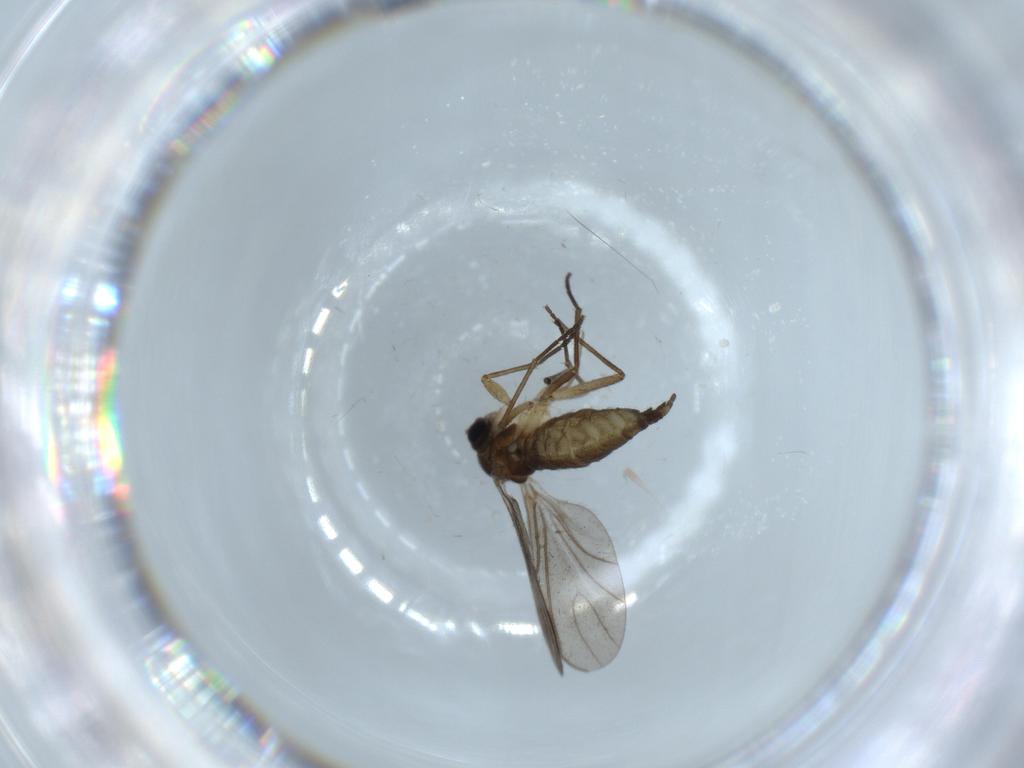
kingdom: Animalia
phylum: Arthropoda
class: Insecta
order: Diptera
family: Sciaridae
